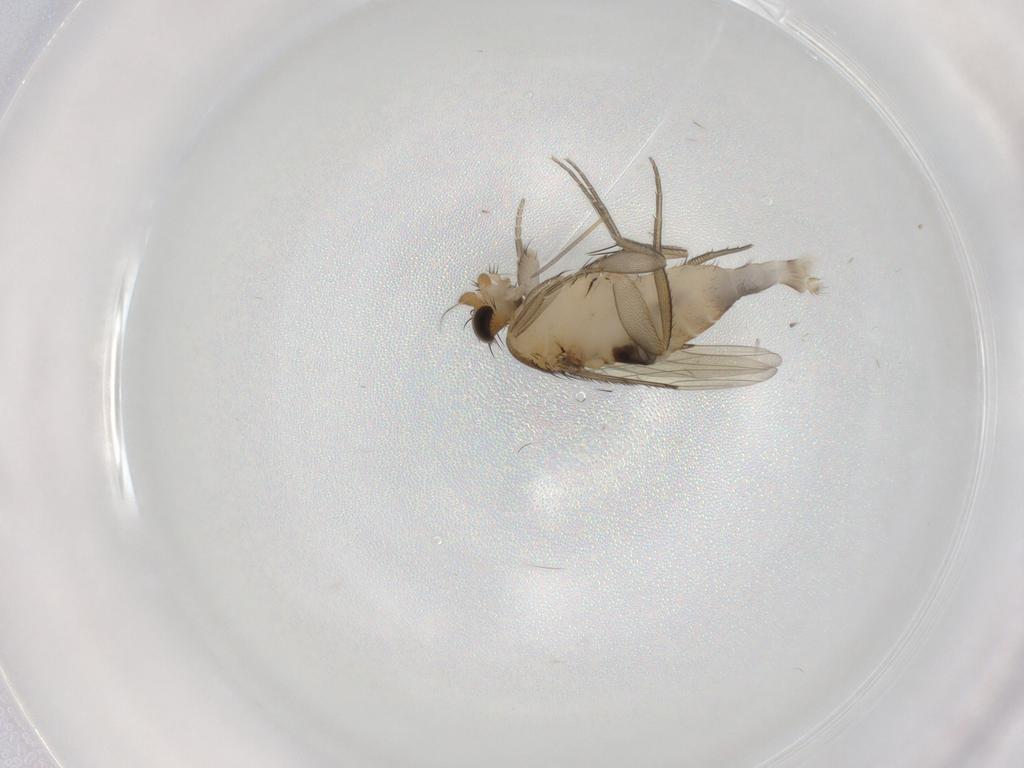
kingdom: Animalia
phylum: Arthropoda
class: Insecta
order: Diptera
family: Phoridae
